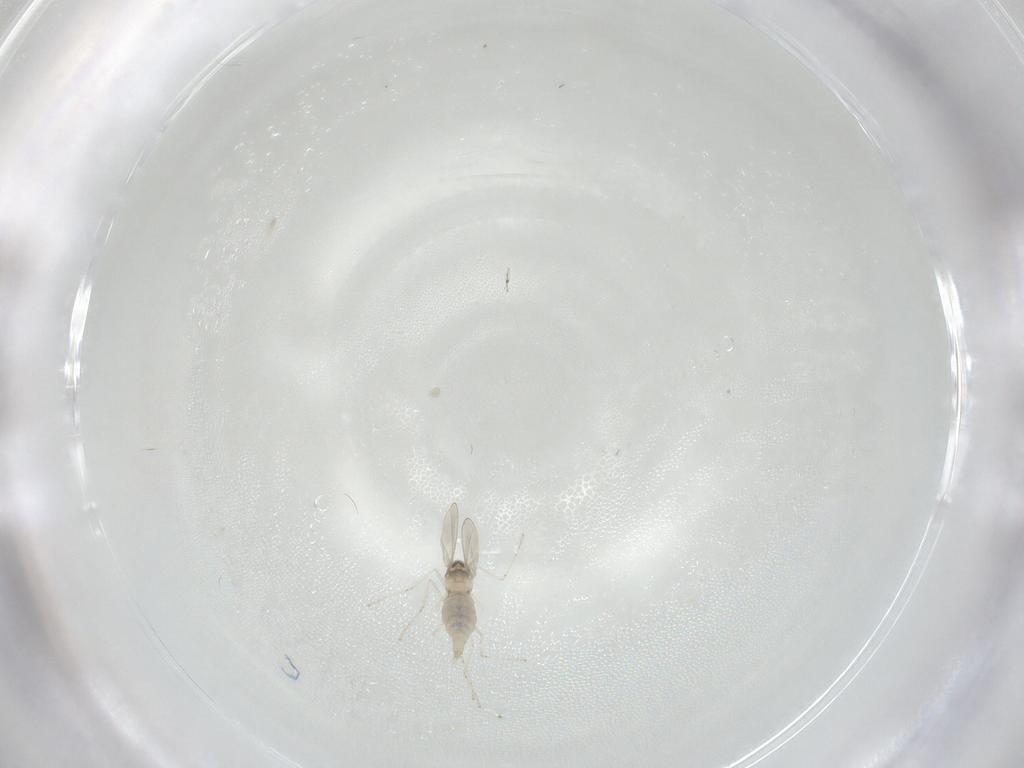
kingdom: Animalia
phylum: Arthropoda
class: Insecta
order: Diptera
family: Cecidomyiidae
